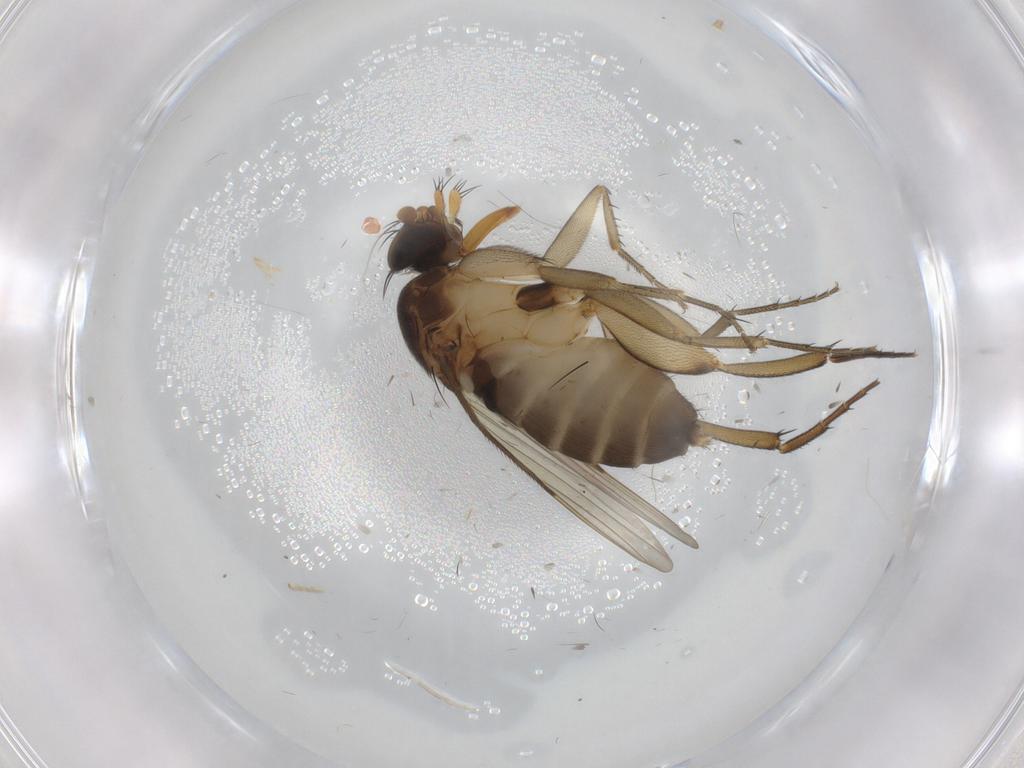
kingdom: Animalia
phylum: Arthropoda
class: Insecta
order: Diptera
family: Phoridae
